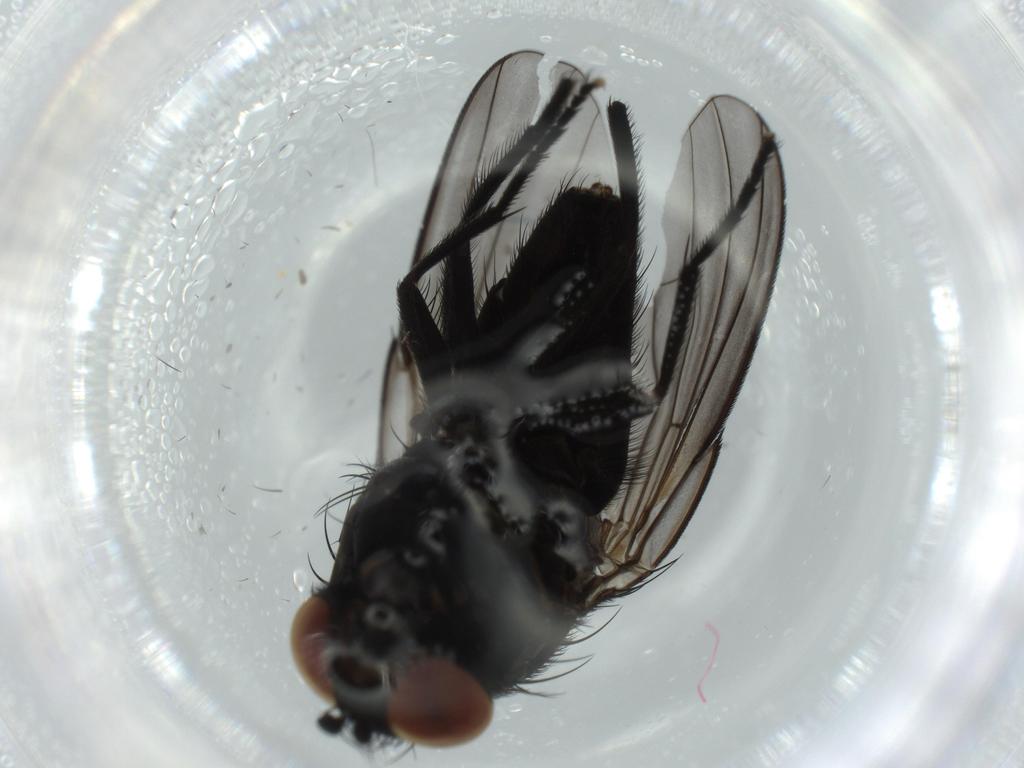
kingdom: Animalia
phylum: Arthropoda
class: Insecta
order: Diptera
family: Milichiidae
